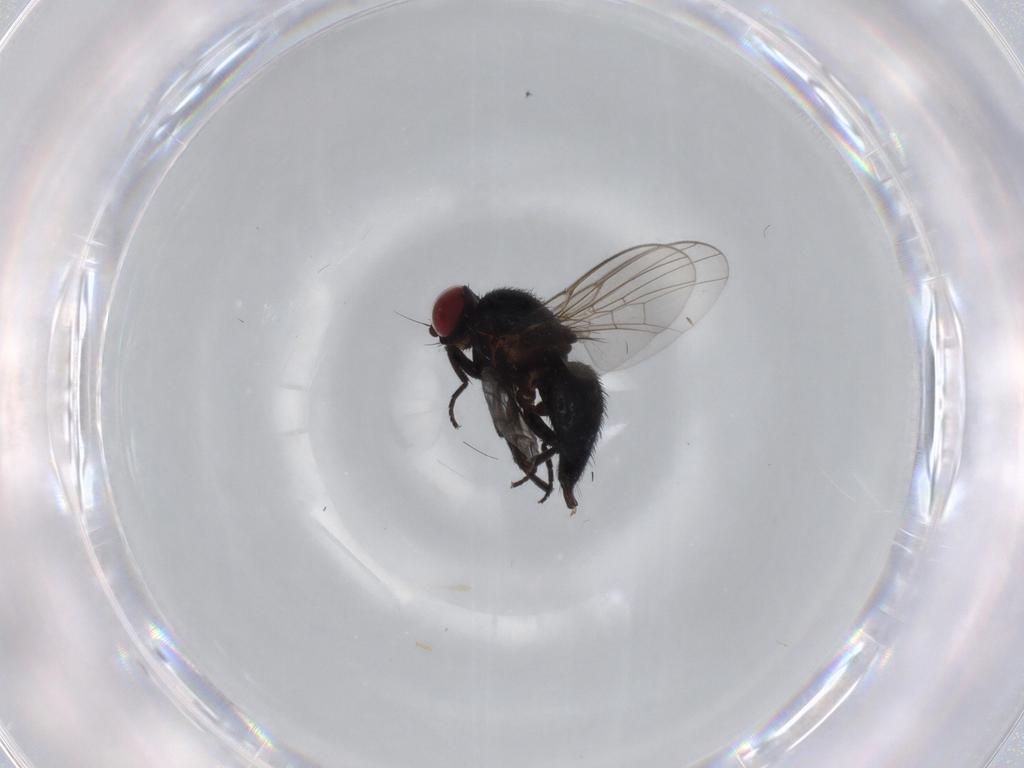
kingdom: Animalia
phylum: Arthropoda
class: Insecta
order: Diptera
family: Agromyzidae
